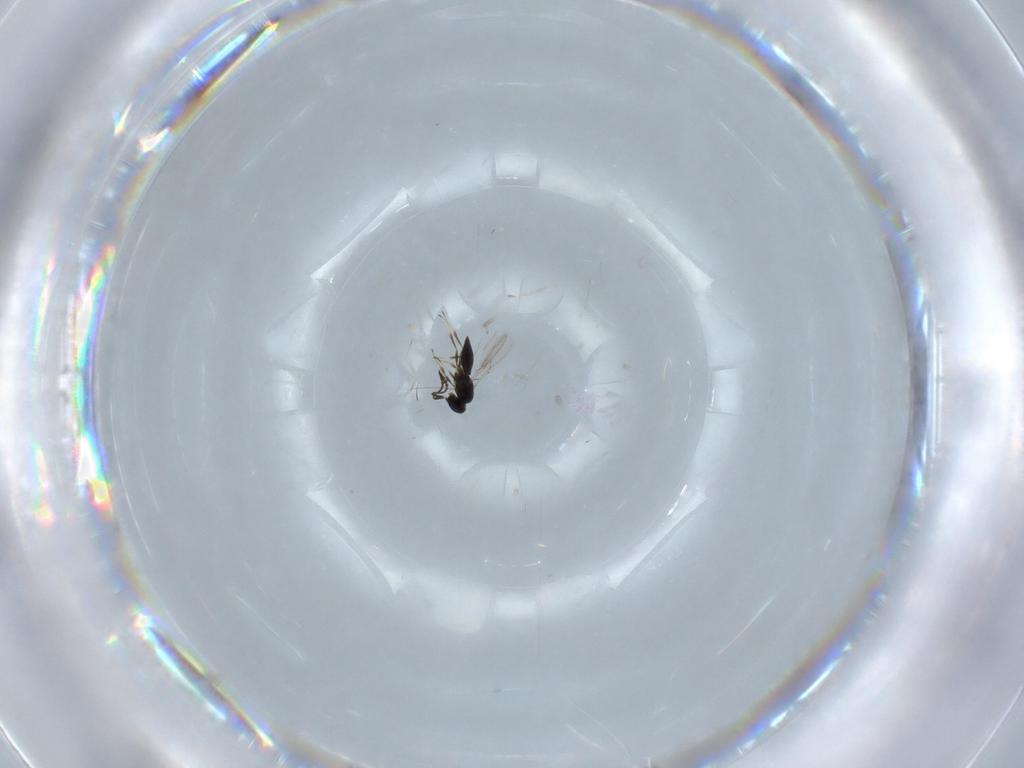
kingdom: Animalia
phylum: Arthropoda
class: Insecta
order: Hymenoptera
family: Scelionidae
